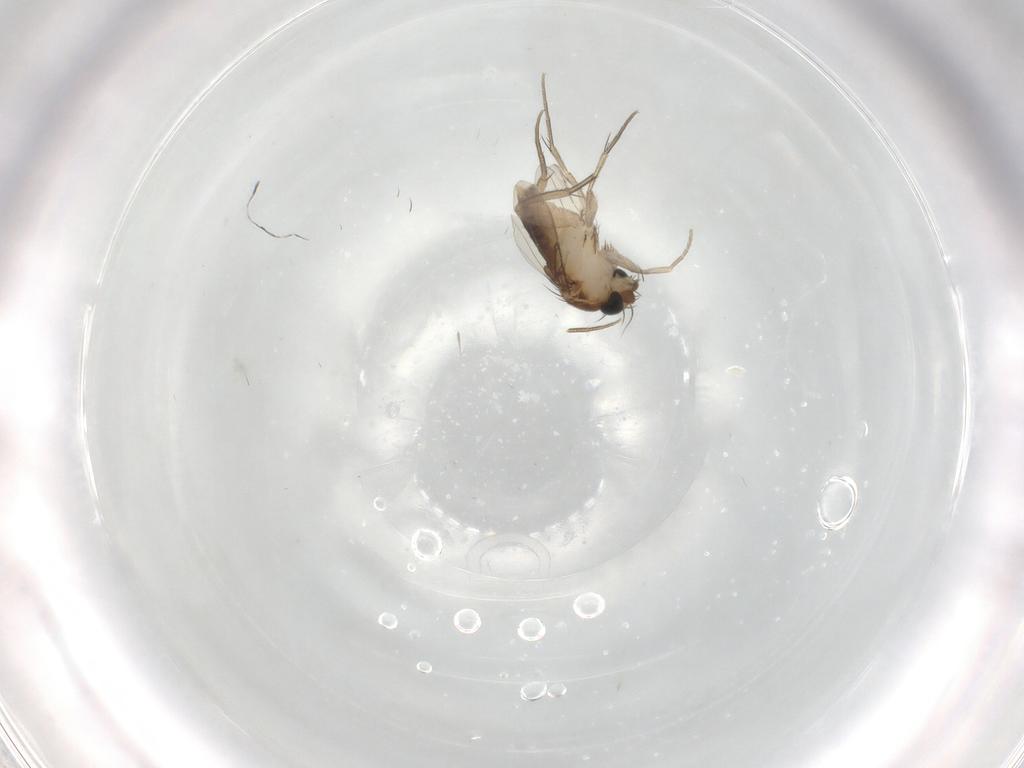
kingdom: Animalia
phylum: Arthropoda
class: Insecta
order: Diptera
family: Phoridae
